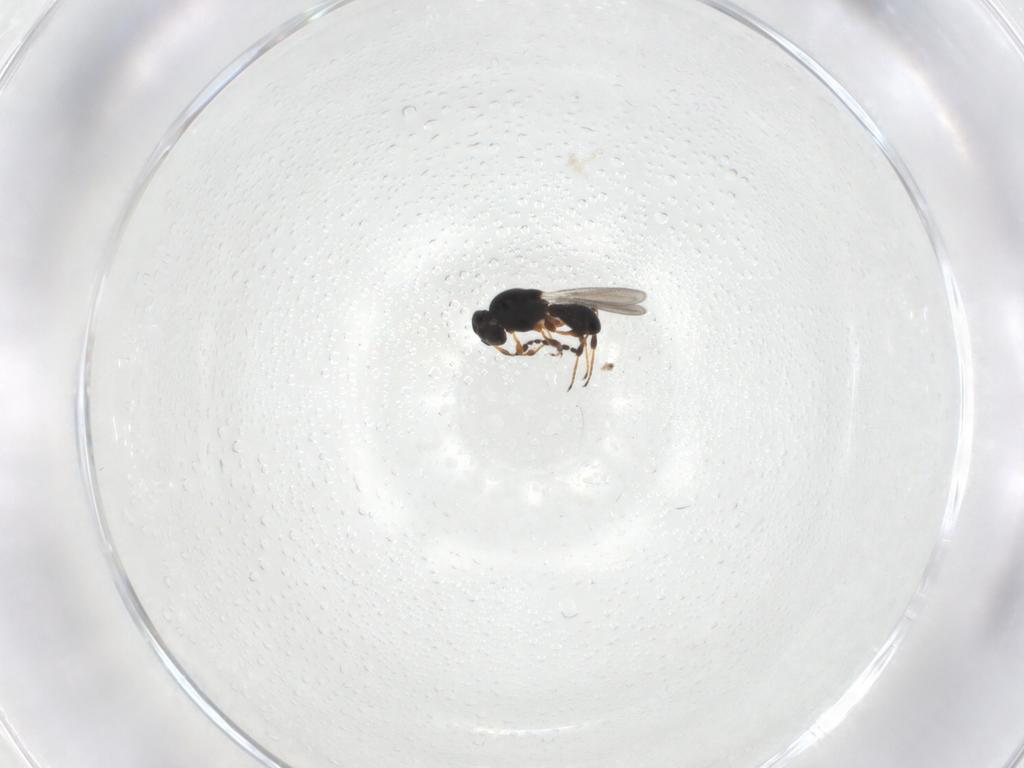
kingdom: Animalia
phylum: Arthropoda
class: Insecta
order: Hymenoptera
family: Platygastridae
